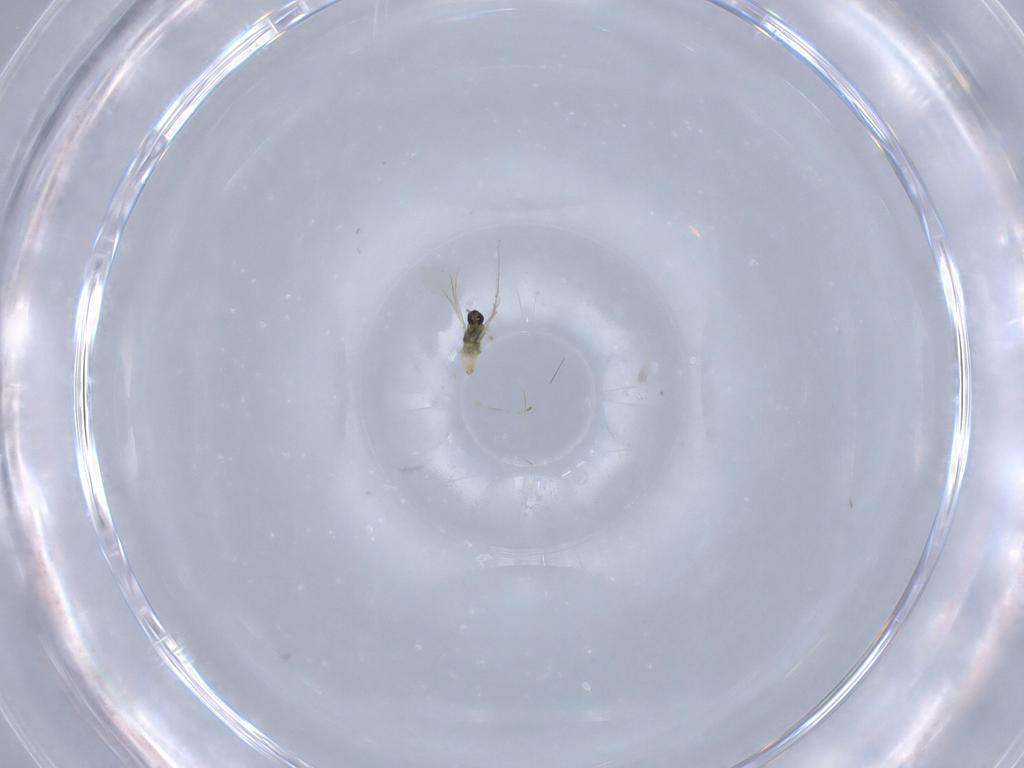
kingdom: Animalia
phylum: Arthropoda
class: Insecta
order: Diptera
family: Cecidomyiidae
